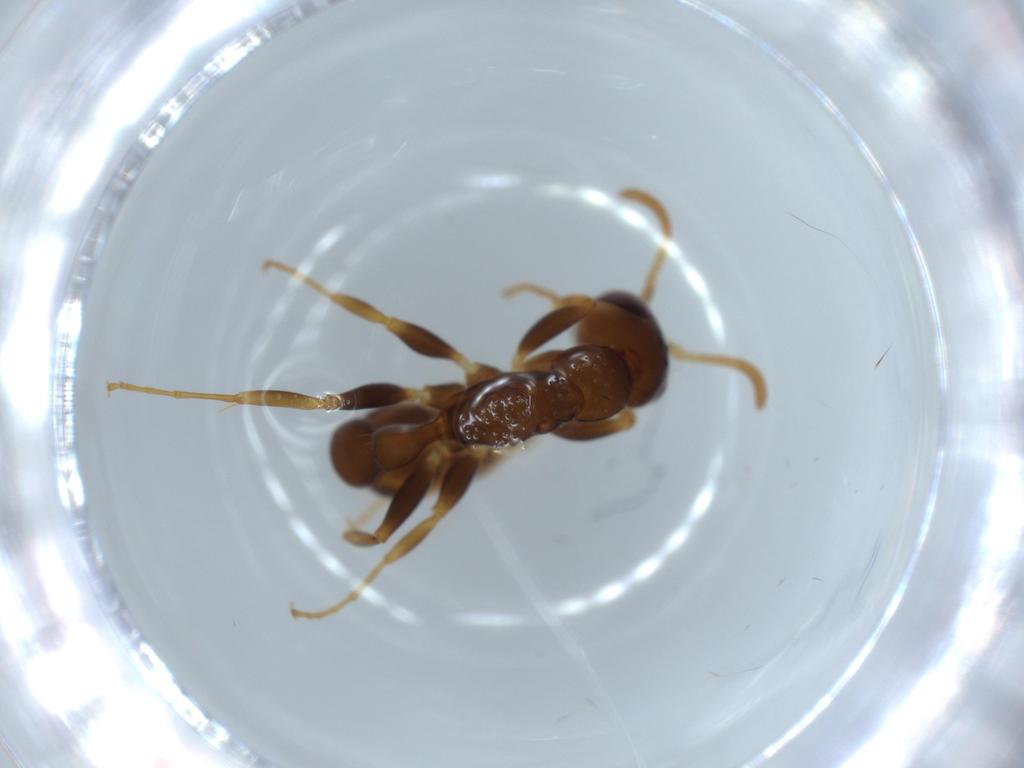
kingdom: Animalia
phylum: Arthropoda
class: Insecta
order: Hymenoptera
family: Formicidae
